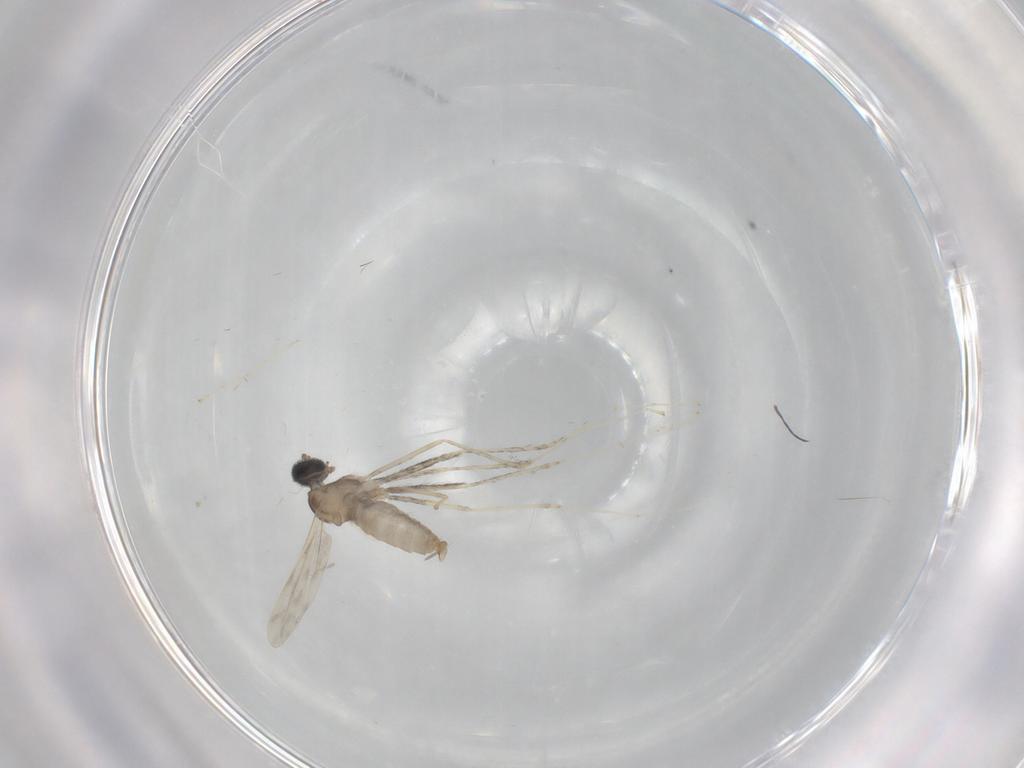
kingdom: Animalia
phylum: Arthropoda
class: Insecta
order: Diptera
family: Cecidomyiidae
